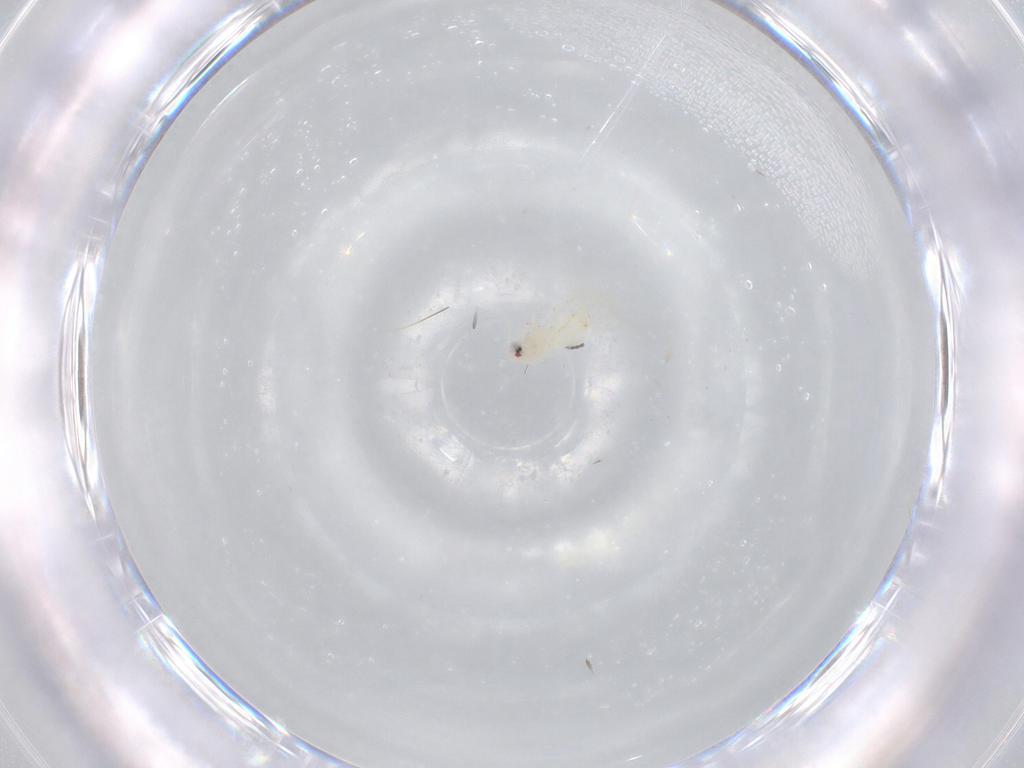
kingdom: Animalia
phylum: Arthropoda
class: Insecta
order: Hemiptera
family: Aleyrodidae
